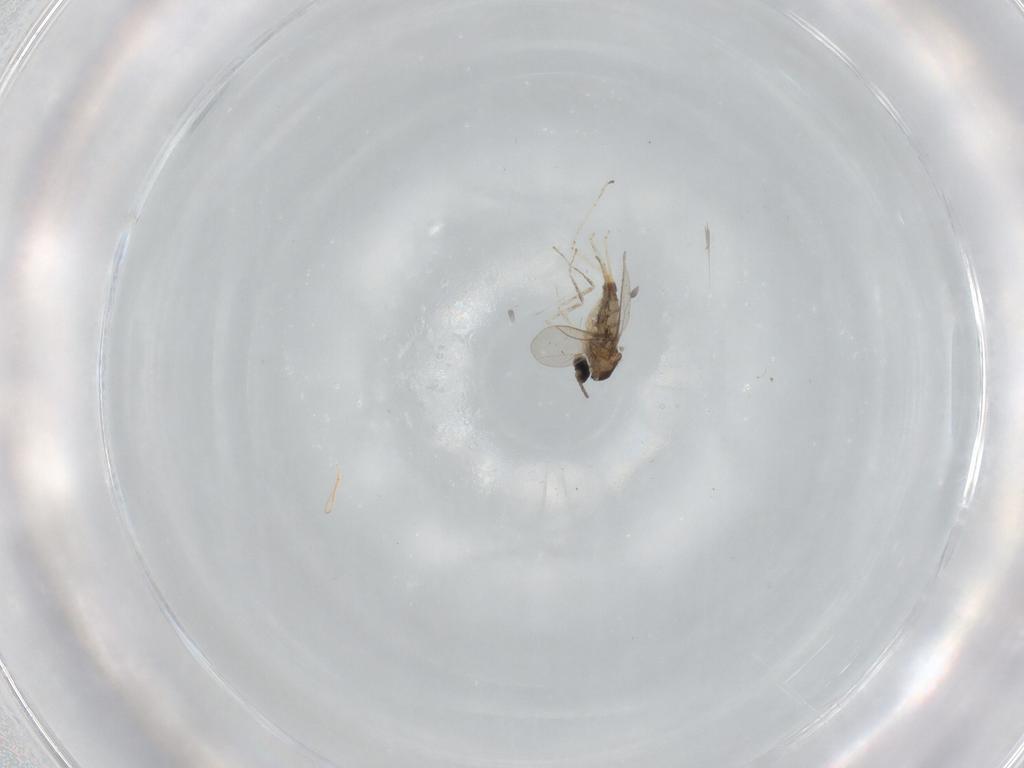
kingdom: Animalia
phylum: Arthropoda
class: Insecta
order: Diptera
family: Cecidomyiidae
